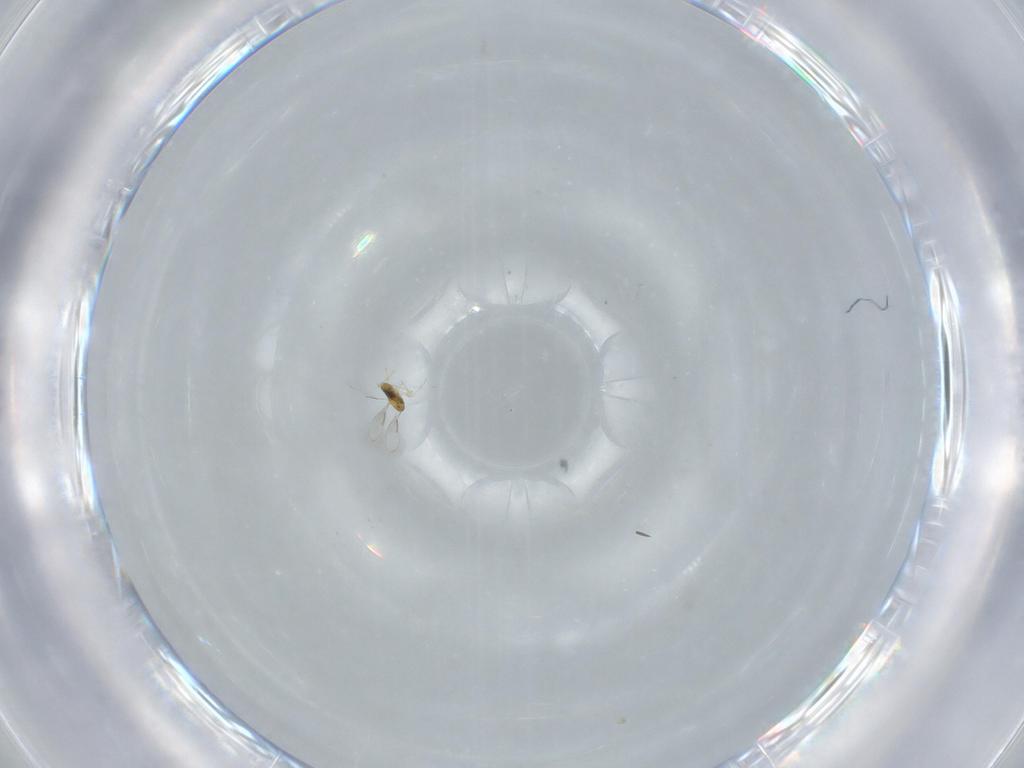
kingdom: Animalia
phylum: Arthropoda
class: Insecta
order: Hymenoptera
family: Aphelinidae
